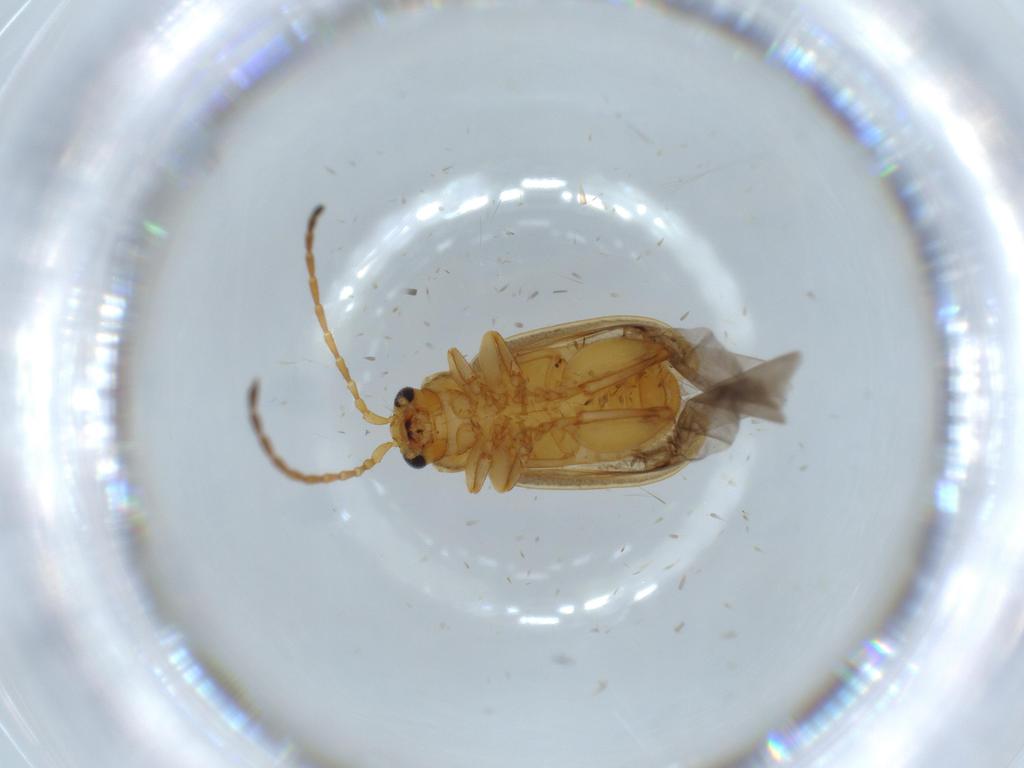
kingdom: Animalia
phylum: Arthropoda
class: Insecta
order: Coleoptera
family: Chrysomelidae
